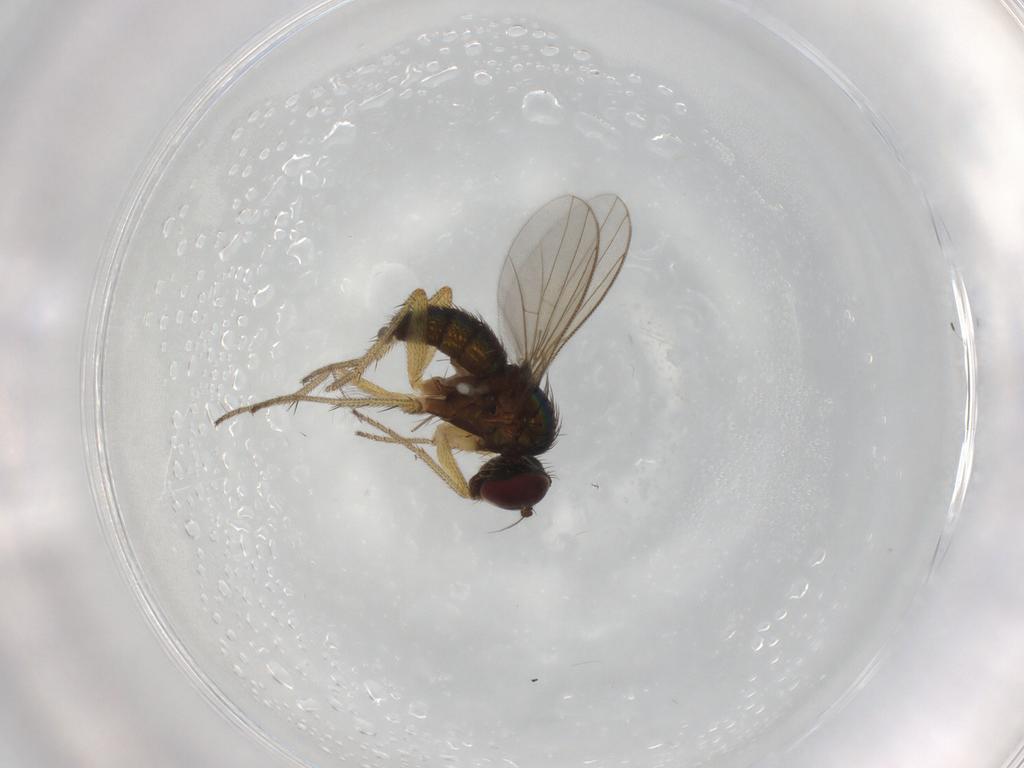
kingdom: Animalia
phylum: Arthropoda
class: Insecta
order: Diptera
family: Chironomidae
